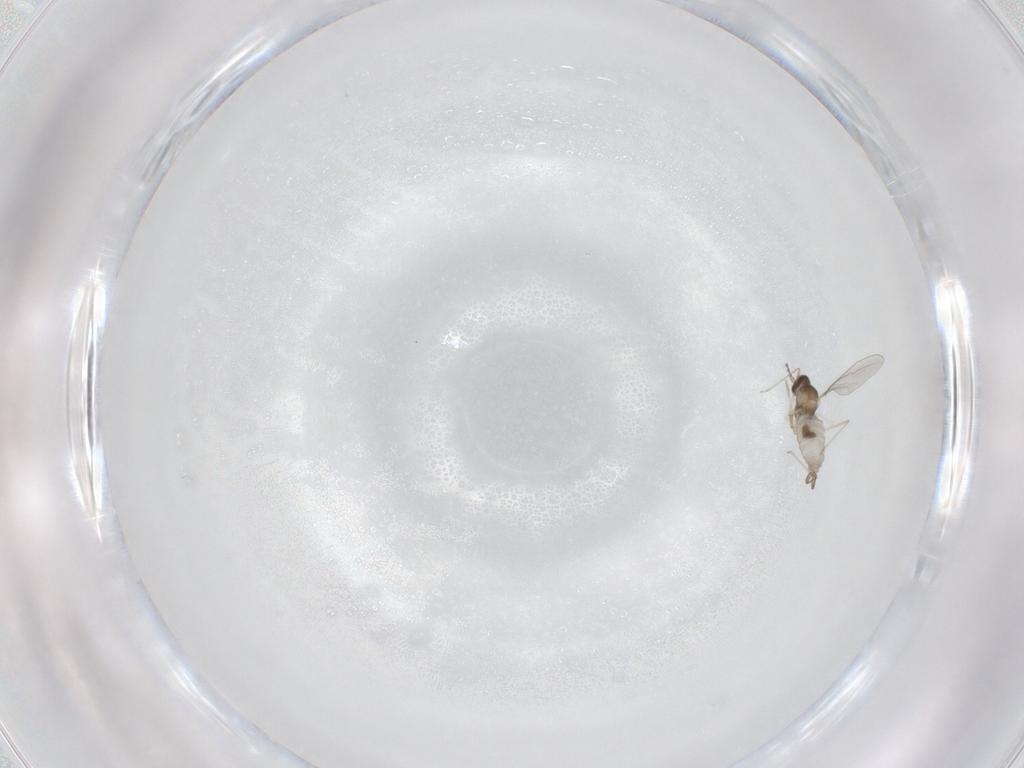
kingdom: Animalia
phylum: Arthropoda
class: Insecta
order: Diptera
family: Cecidomyiidae
